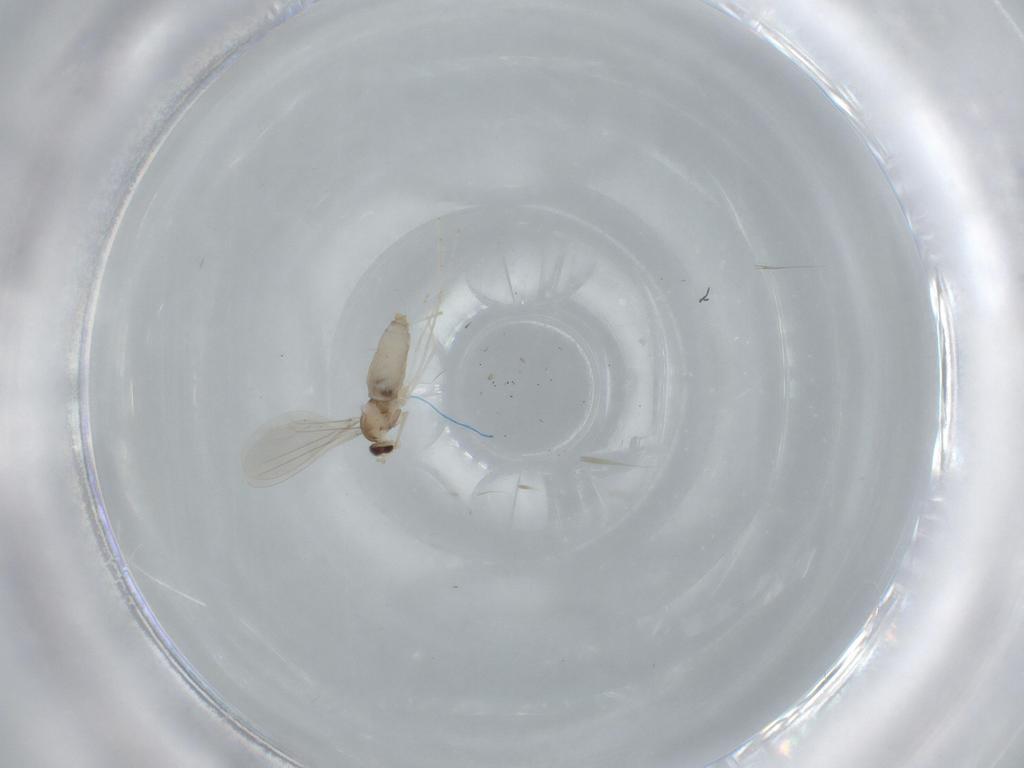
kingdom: Animalia
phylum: Arthropoda
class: Insecta
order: Diptera
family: Cecidomyiidae
